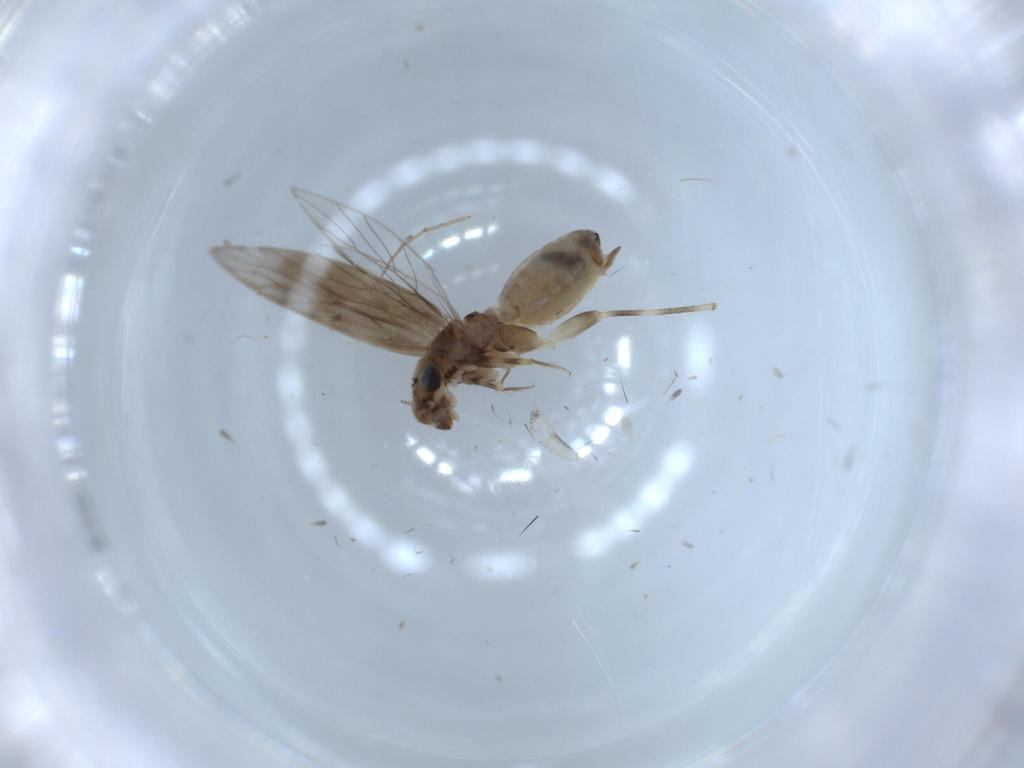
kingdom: Animalia
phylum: Arthropoda
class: Insecta
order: Psocodea
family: Lepidopsocidae
